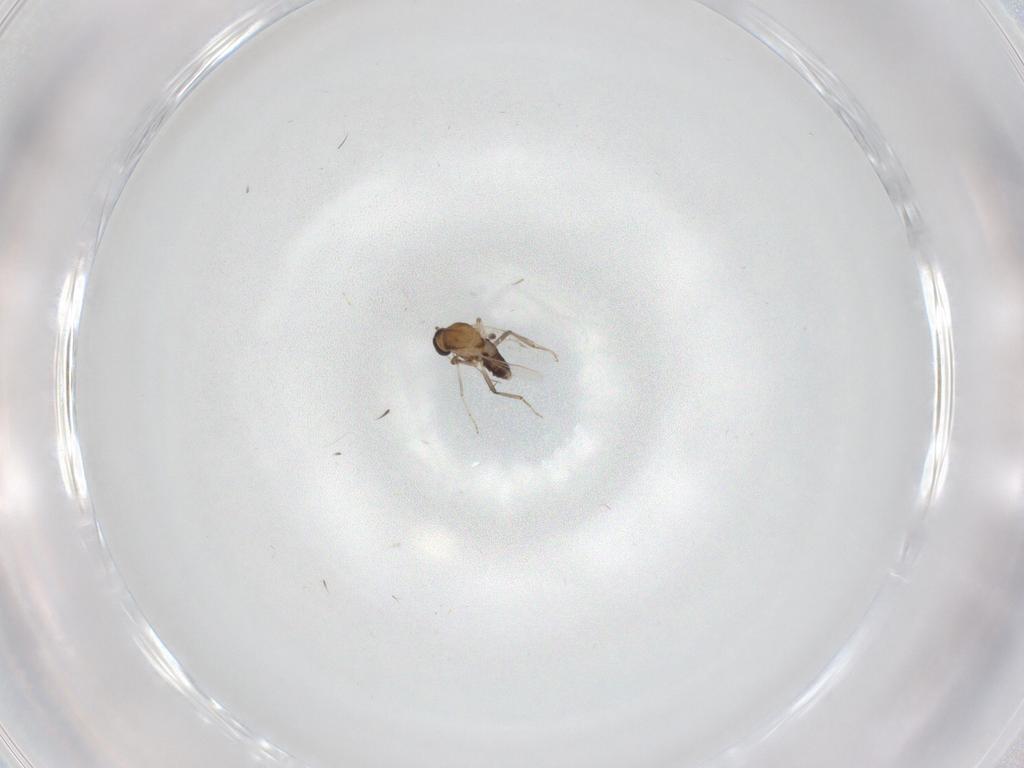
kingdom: Animalia
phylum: Arthropoda
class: Insecta
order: Diptera
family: Ceratopogonidae
